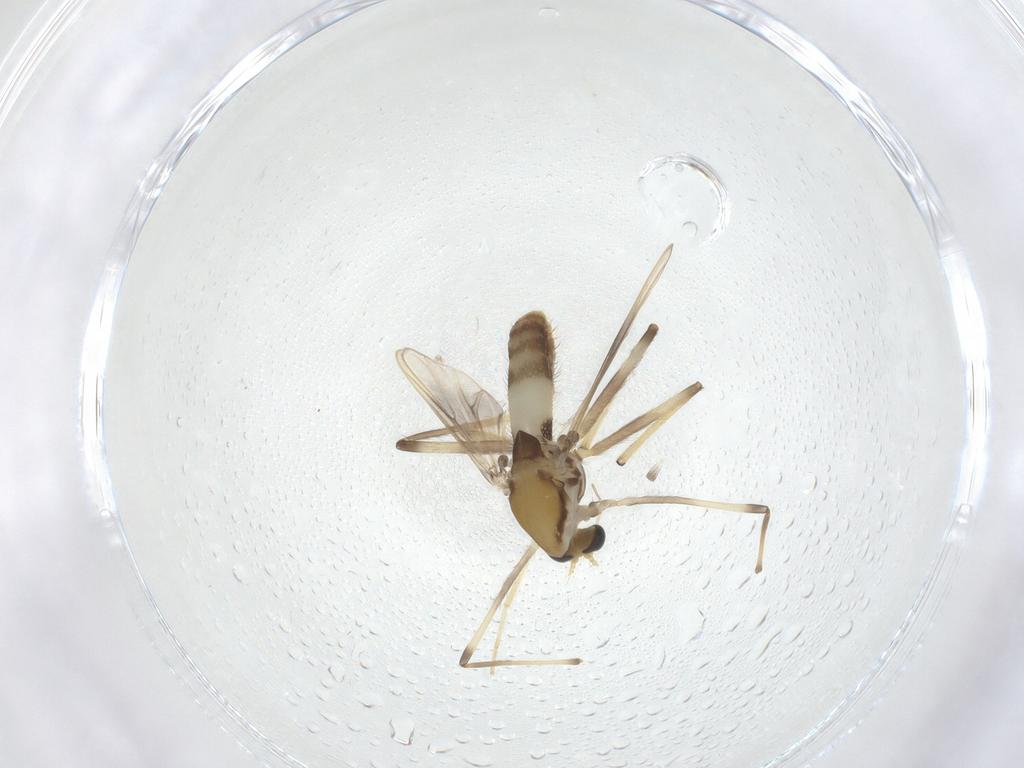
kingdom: Animalia
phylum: Arthropoda
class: Insecta
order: Diptera
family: Chironomidae
